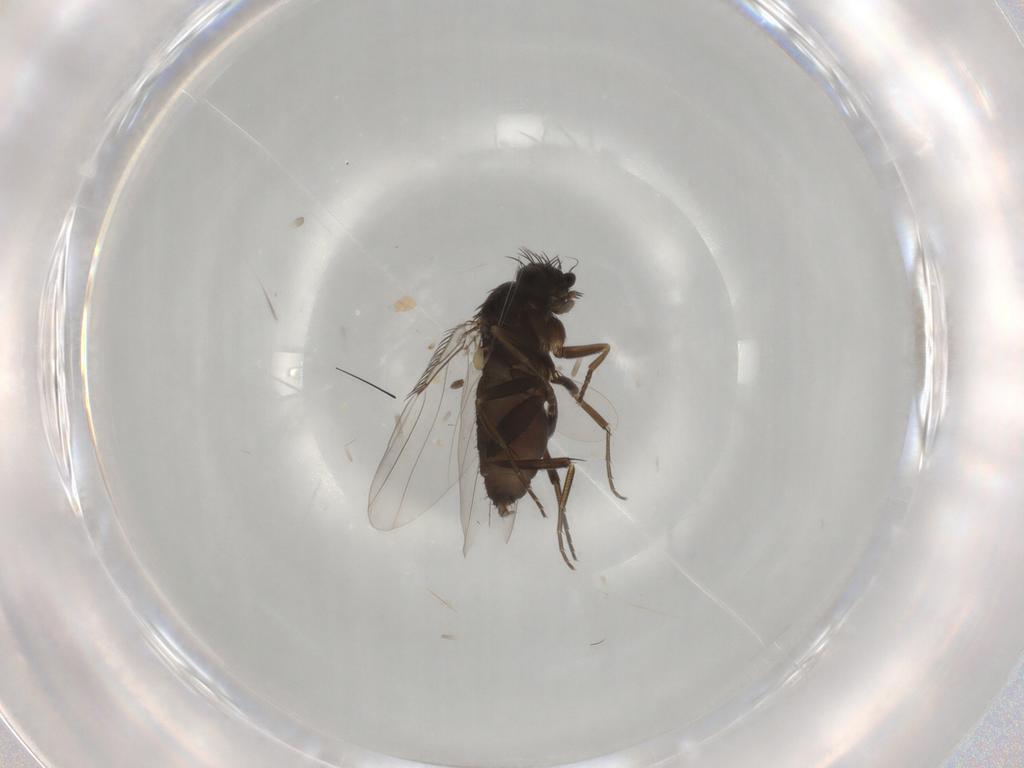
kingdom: Animalia
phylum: Arthropoda
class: Insecta
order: Diptera
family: Phoridae
